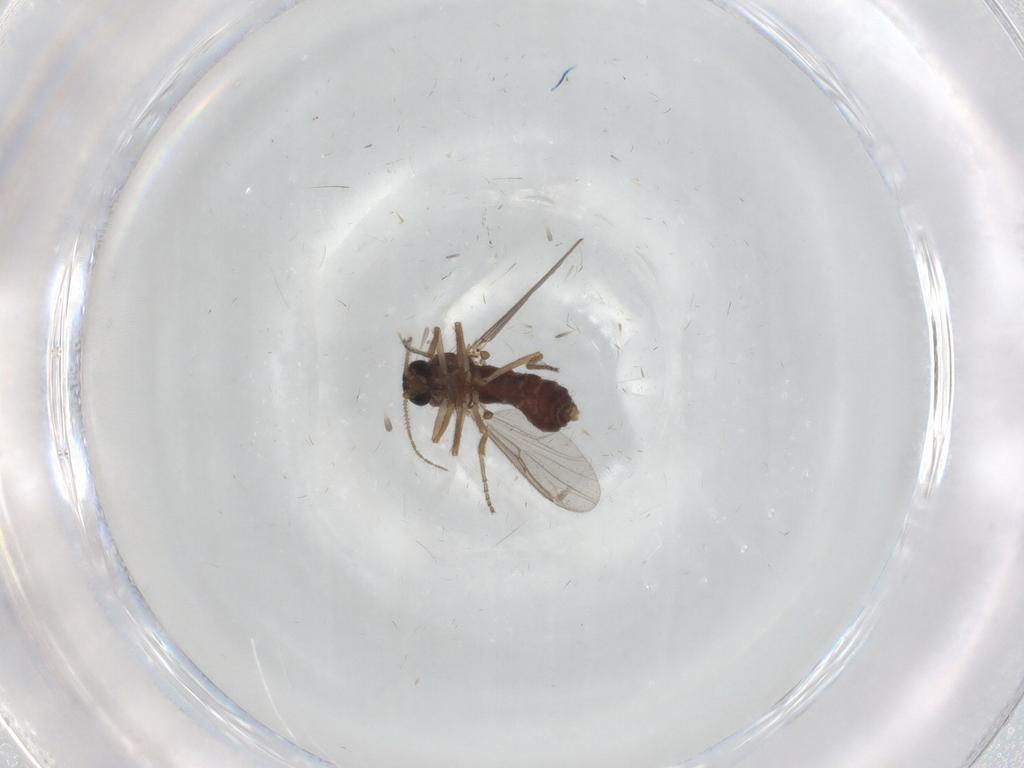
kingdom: Animalia
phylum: Arthropoda
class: Insecta
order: Diptera
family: Ceratopogonidae
